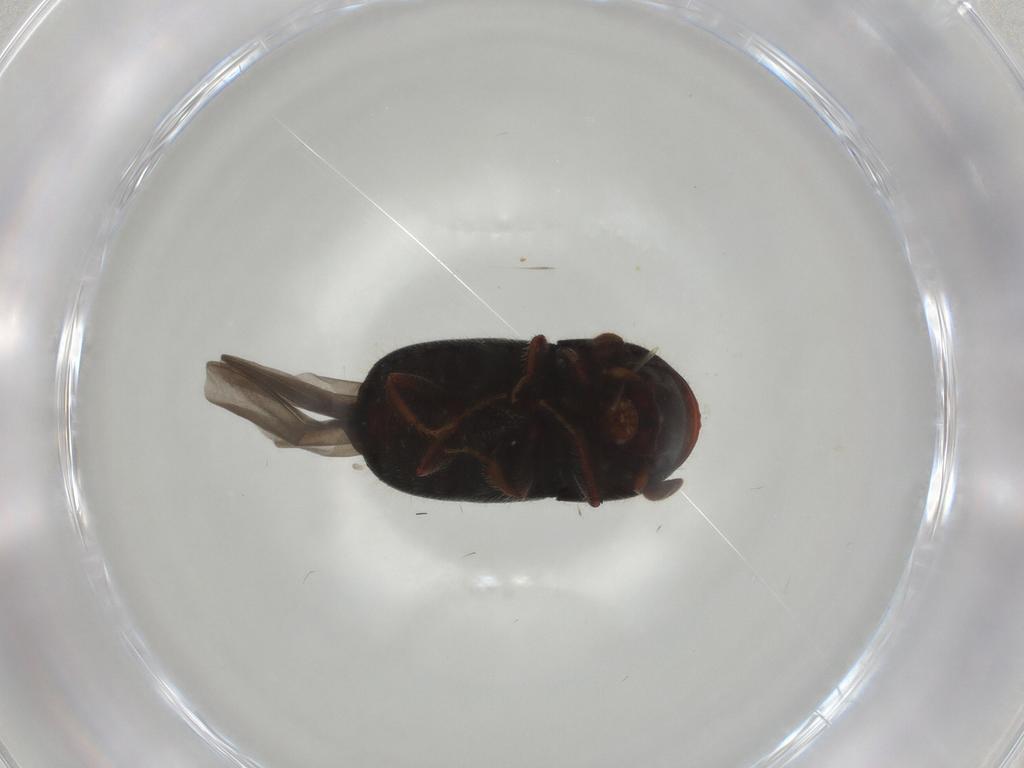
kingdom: Animalia
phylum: Arthropoda
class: Insecta
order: Coleoptera
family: Curculionidae
